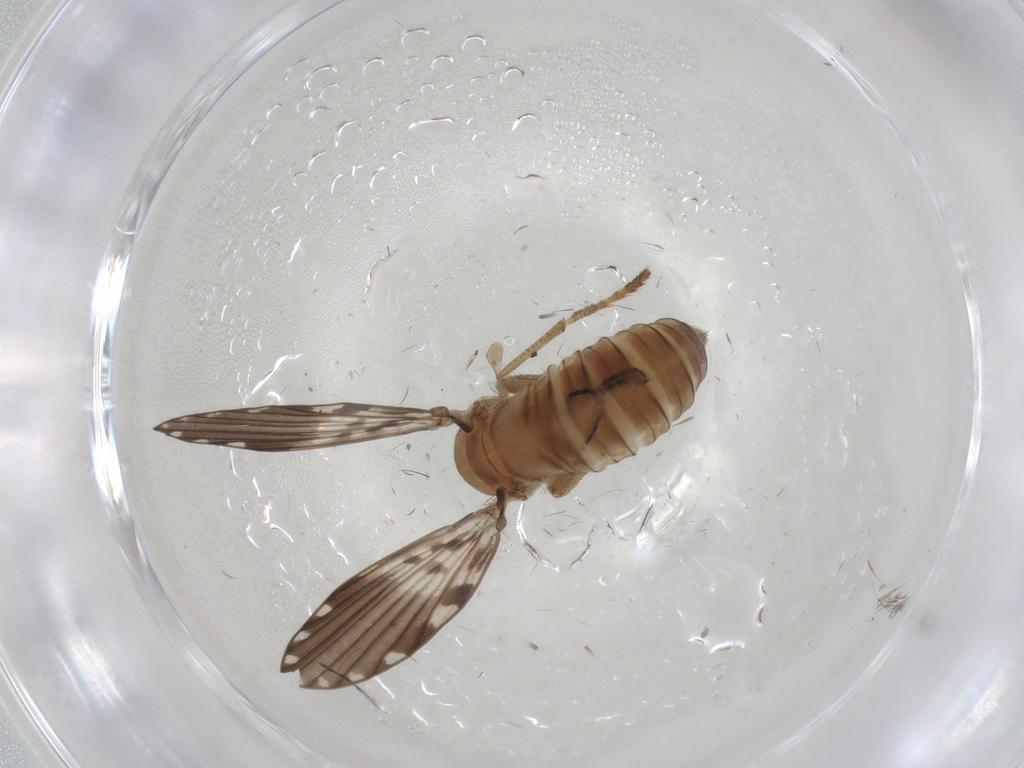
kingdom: Animalia
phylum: Arthropoda
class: Insecta
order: Diptera
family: Psychodidae
